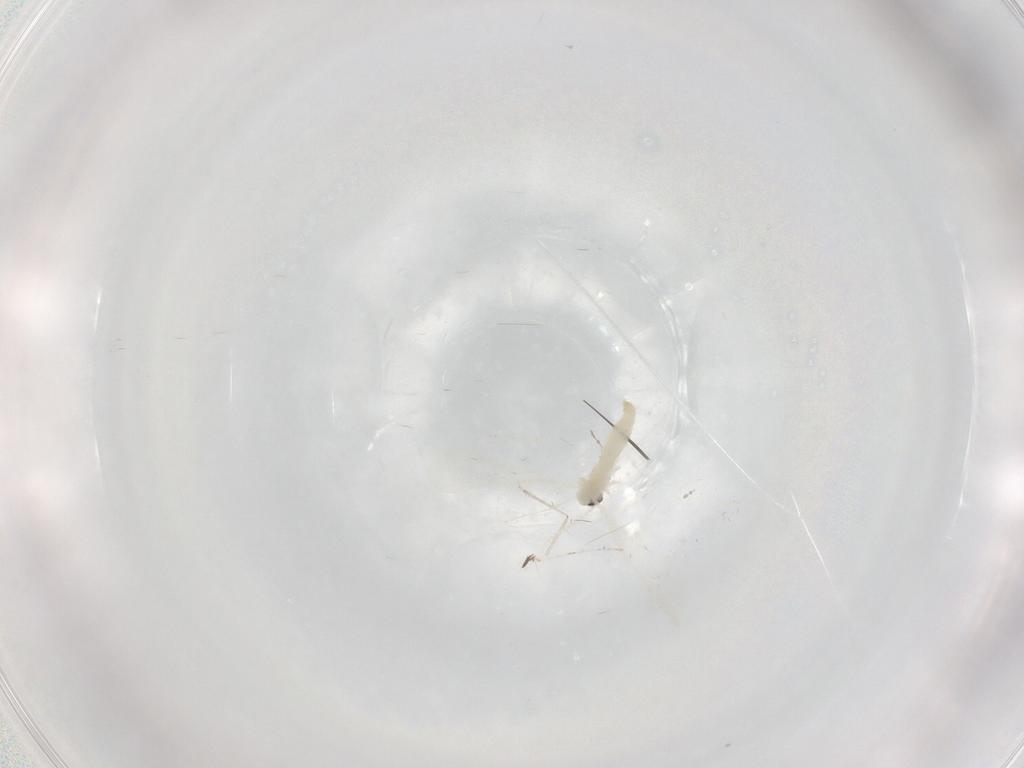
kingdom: Animalia
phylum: Arthropoda
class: Insecta
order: Diptera
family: Cecidomyiidae
